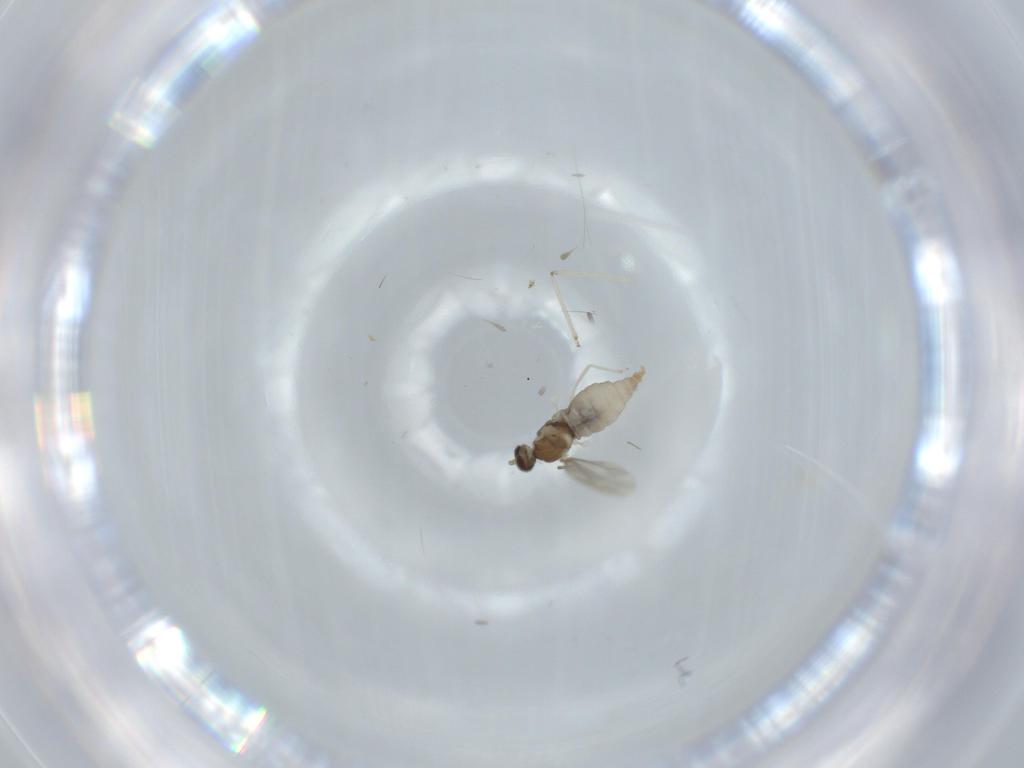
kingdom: Animalia
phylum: Arthropoda
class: Insecta
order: Diptera
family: Cecidomyiidae
